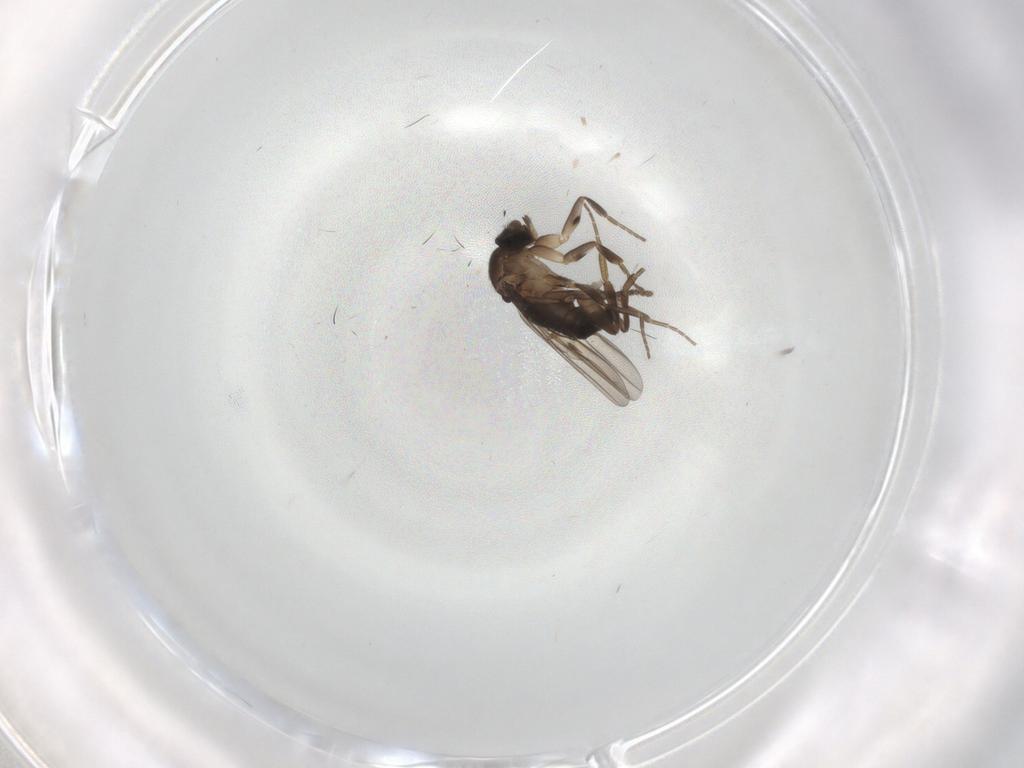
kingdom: Animalia
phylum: Arthropoda
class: Insecta
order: Diptera
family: Phoridae
